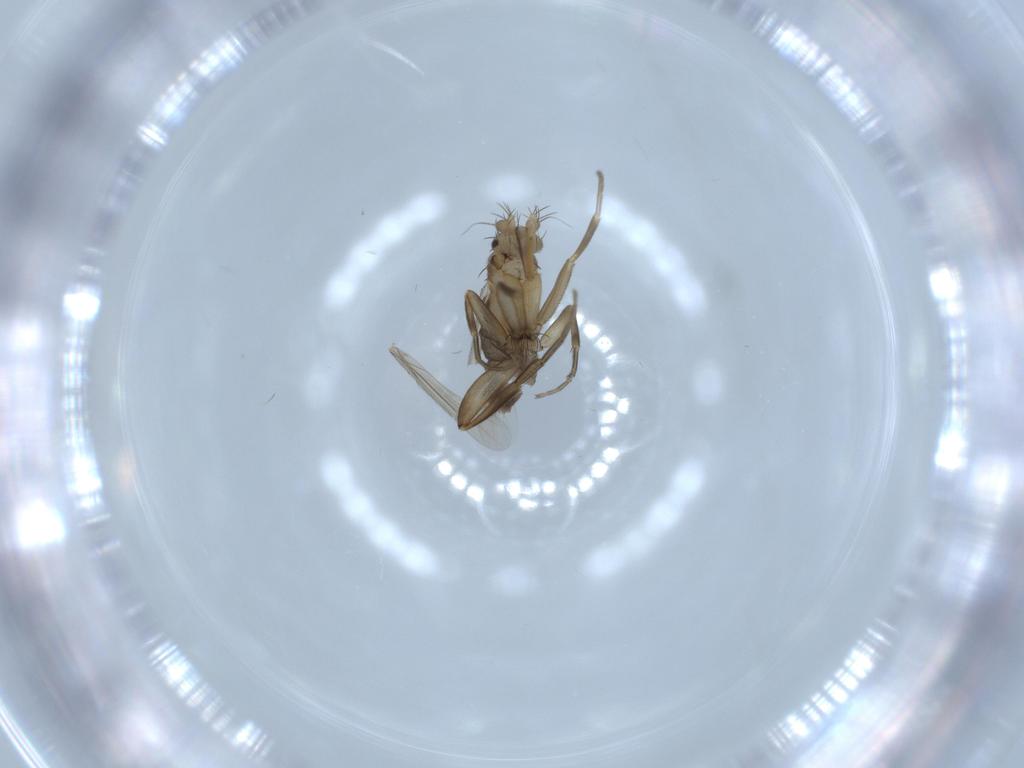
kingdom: Animalia
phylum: Arthropoda
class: Insecta
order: Diptera
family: Phoridae
